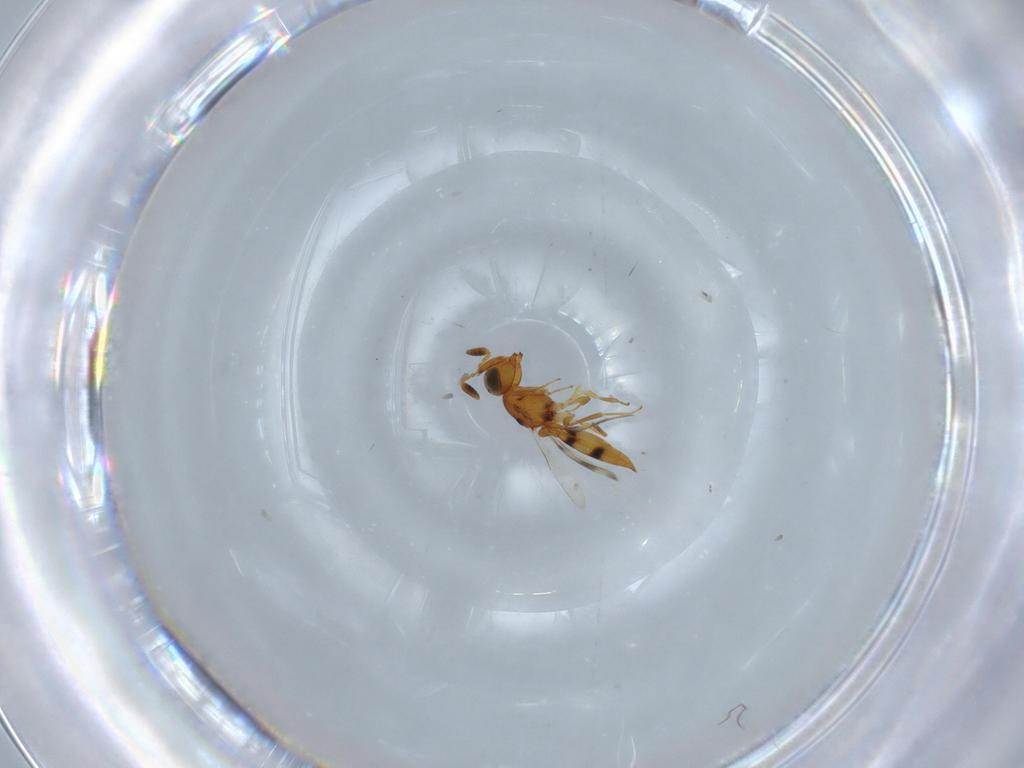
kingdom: Animalia
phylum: Arthropoda
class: Insecta
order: Hymenoptera
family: Scelionidae
